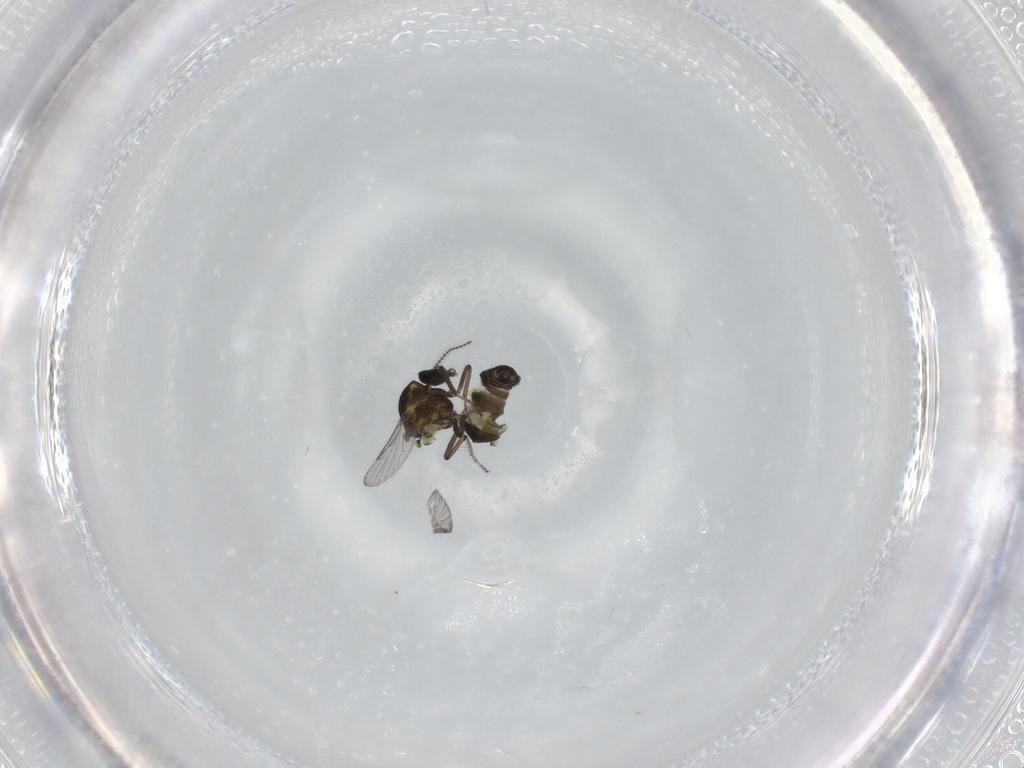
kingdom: Animalia
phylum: Arthropoda
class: Insecta
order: Diptera
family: Ceratopogonidae
